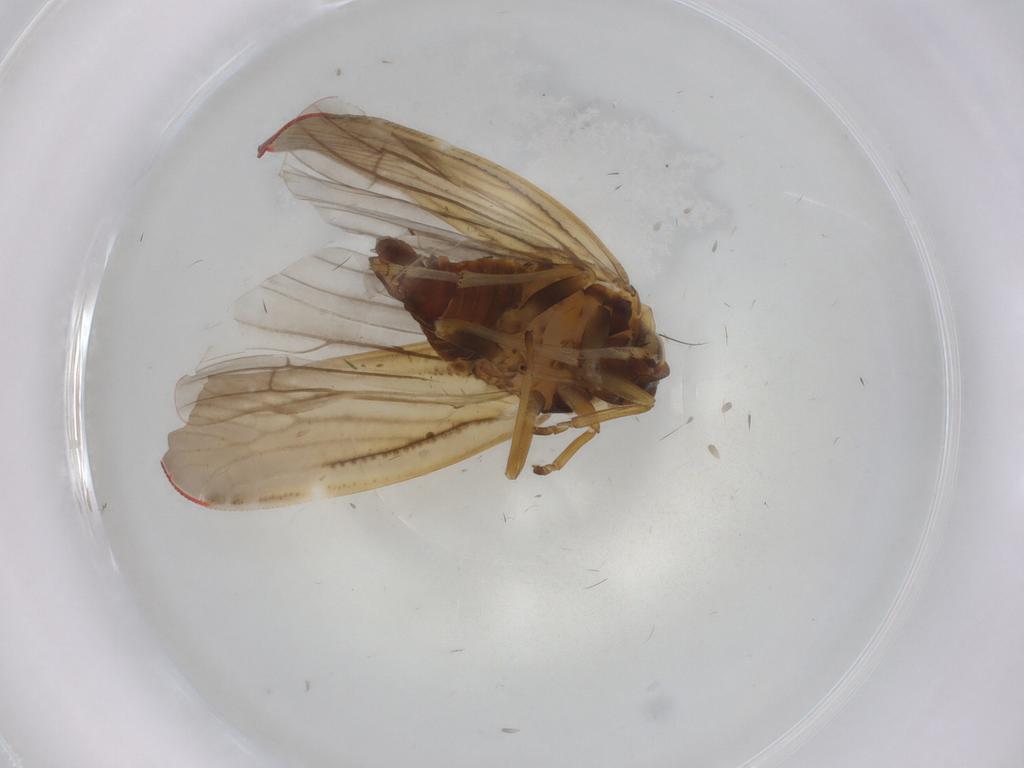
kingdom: Animalia
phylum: Arthropoda
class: Insecta
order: Hemiptera
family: Derbidae
